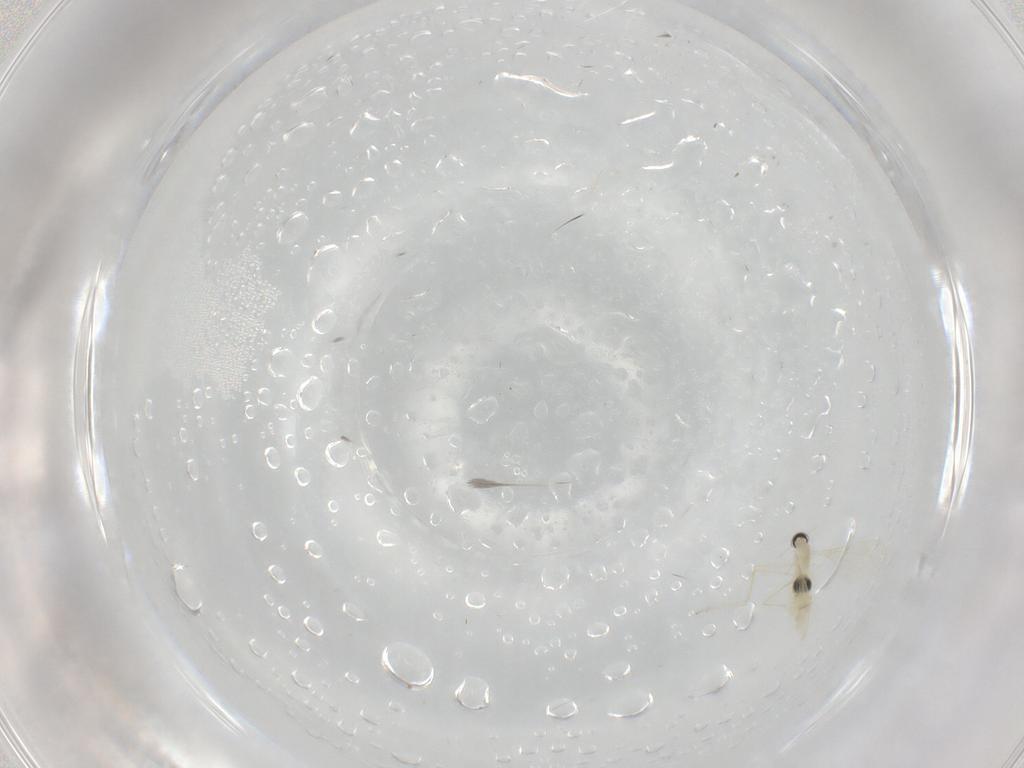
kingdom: Animalia
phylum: Arthropoda
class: Insecta
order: Diptera
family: Cecidomyiidae
